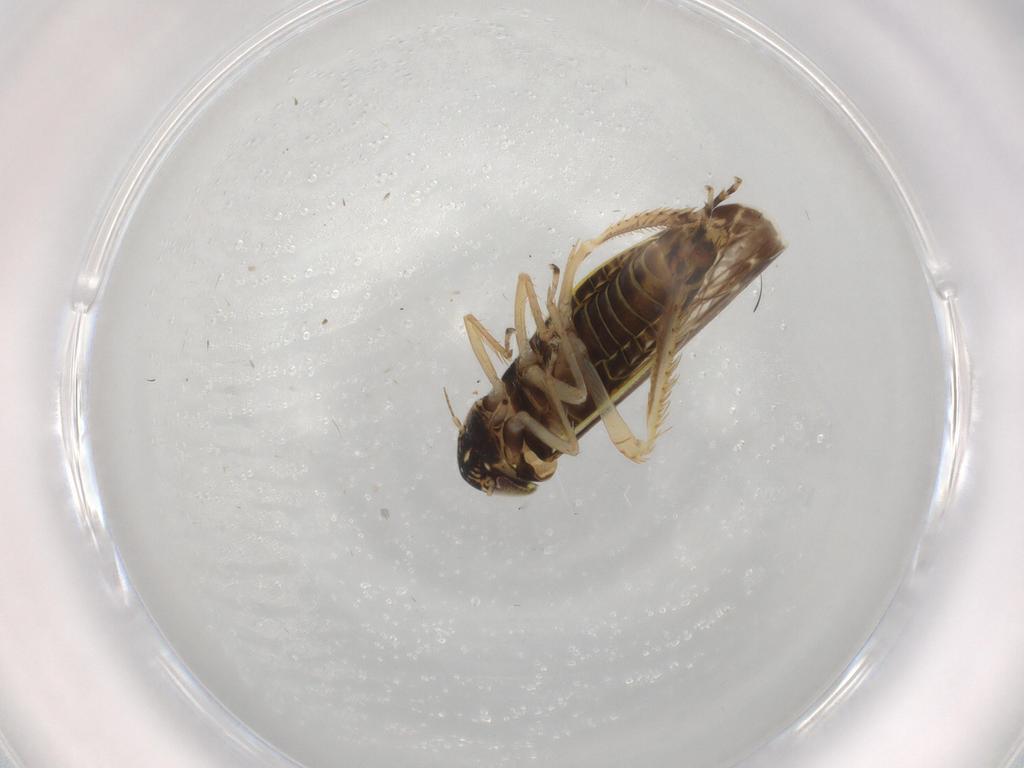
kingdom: Animalia
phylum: Arthropoda
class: Insecta
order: Hemiptera
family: Cicadellidae
